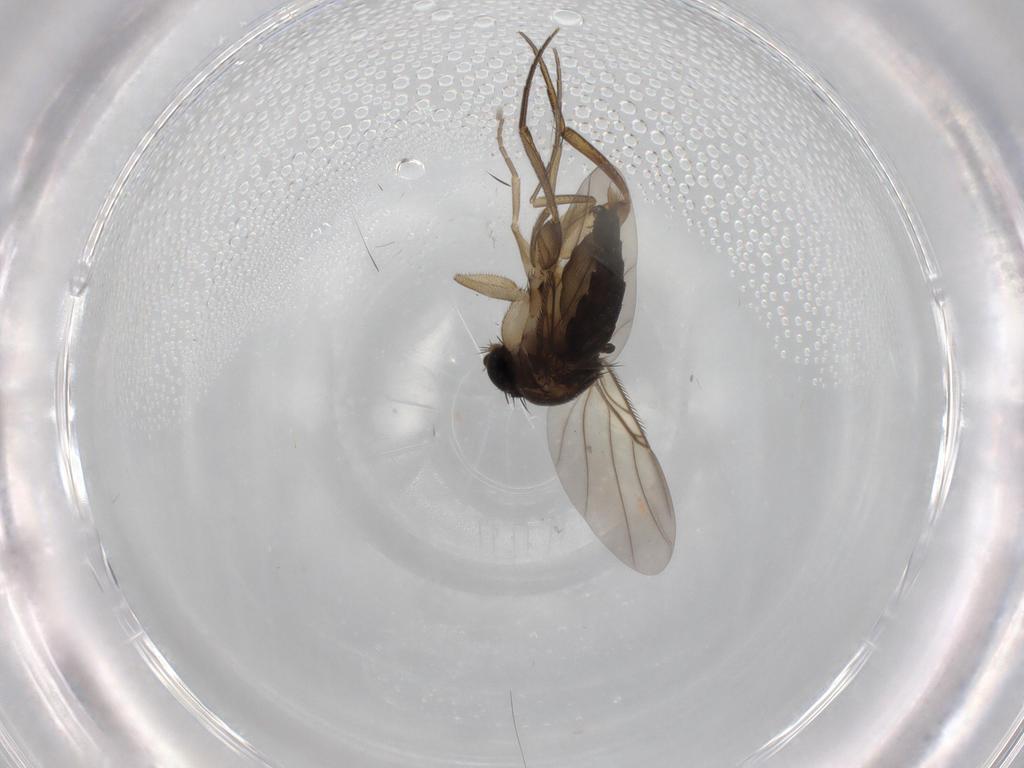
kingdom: Animalia
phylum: Arthropoda
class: Insecta
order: Diptera
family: Phoridae
